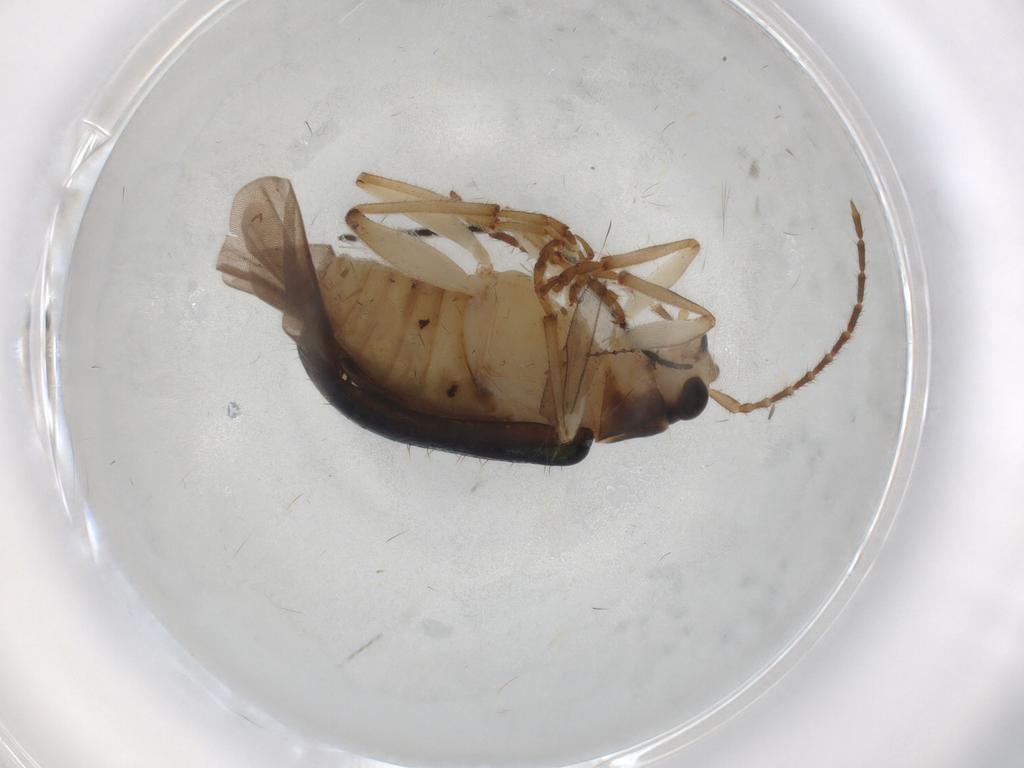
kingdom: Animalia
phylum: Arthropoda
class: Insecta
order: Coleoptera
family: Chrysomelidae
